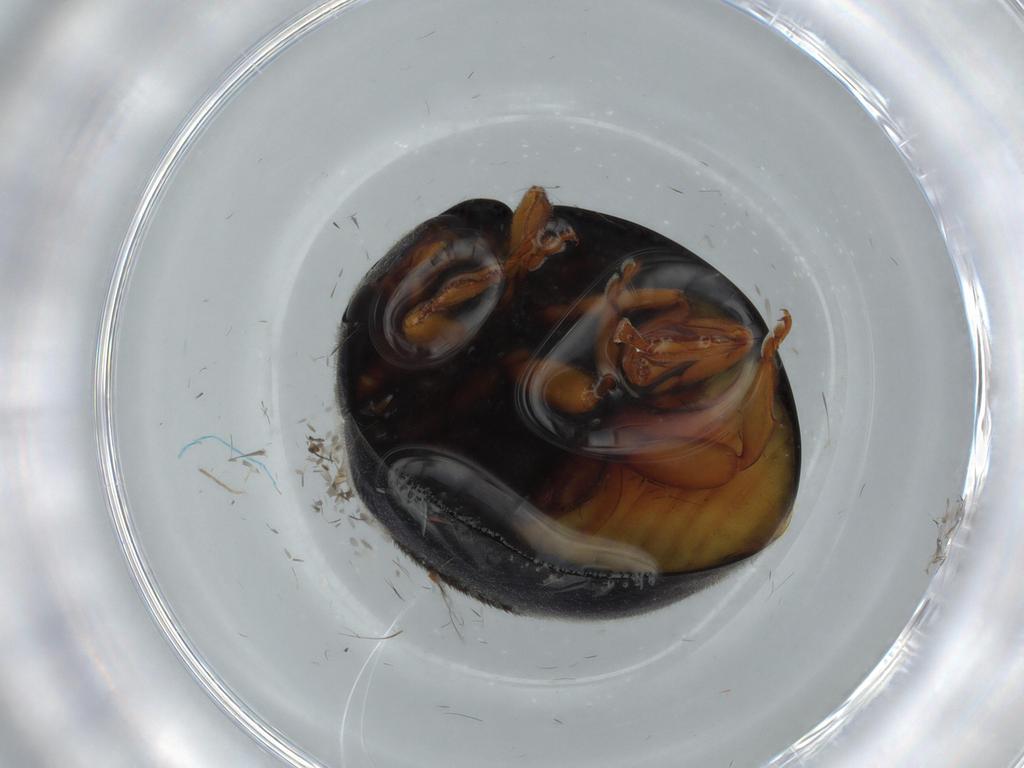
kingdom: Animalia
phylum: Arthropoda
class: Insecta
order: Coleoptera
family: Coccinellidae
